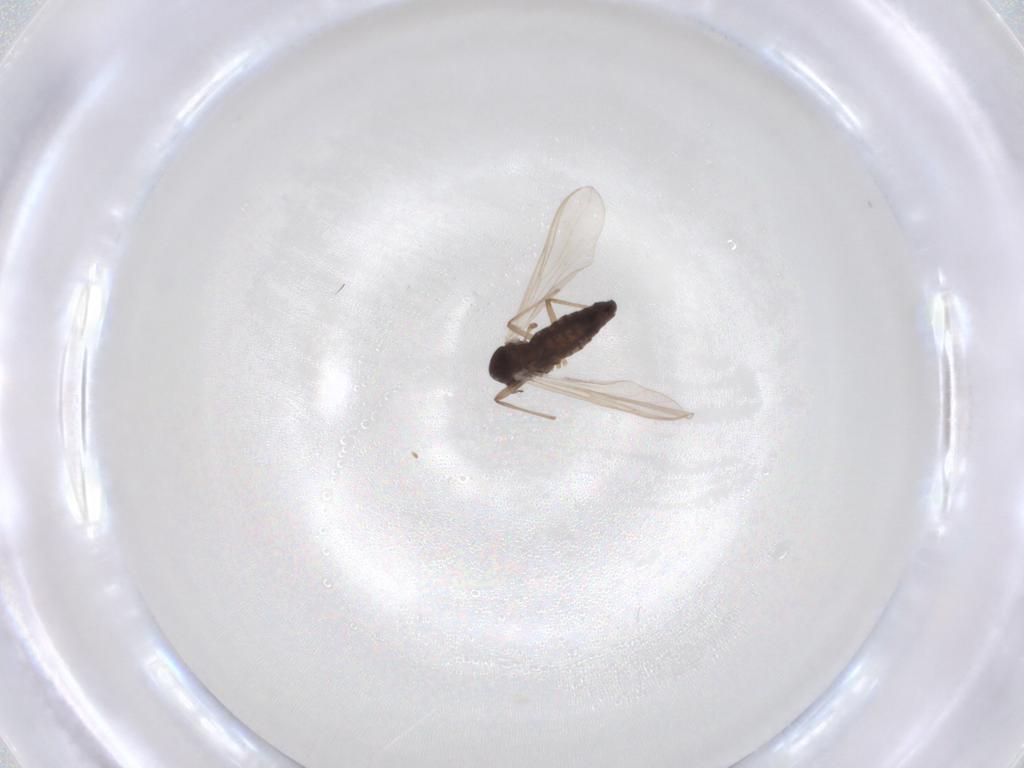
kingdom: Animalia
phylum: Arthropoda
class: Insecta
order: Diptera
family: Chironomidae
